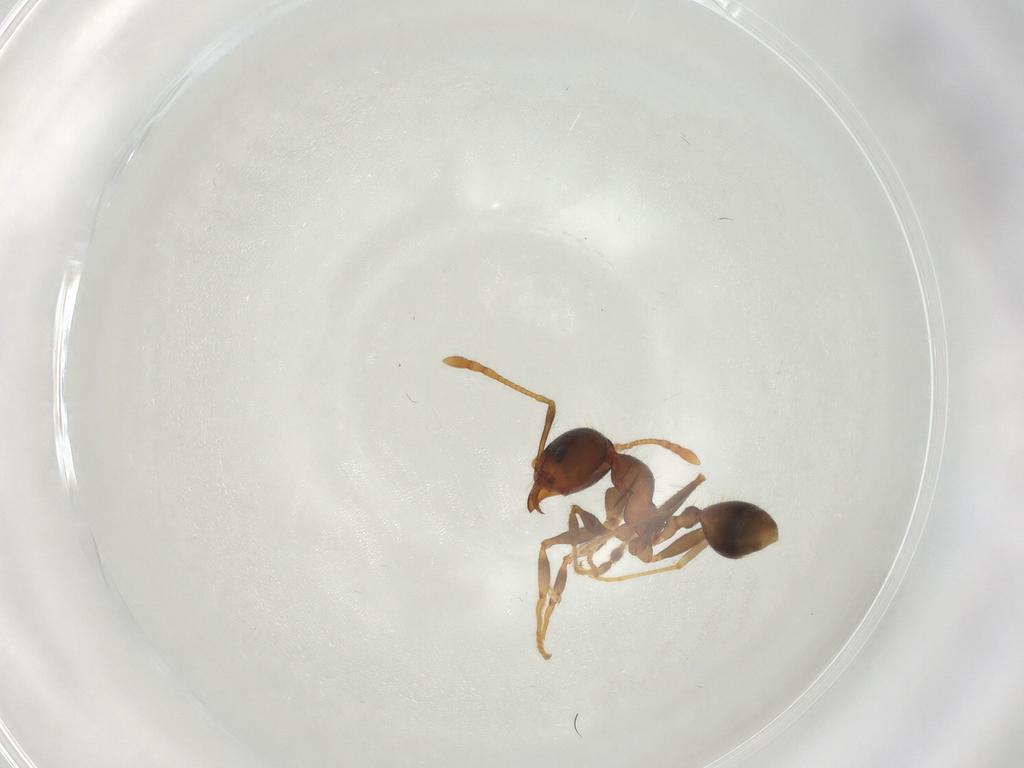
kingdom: Animalia
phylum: Arthropoda
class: Insecta
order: Hymenoptera
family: Formicidae
